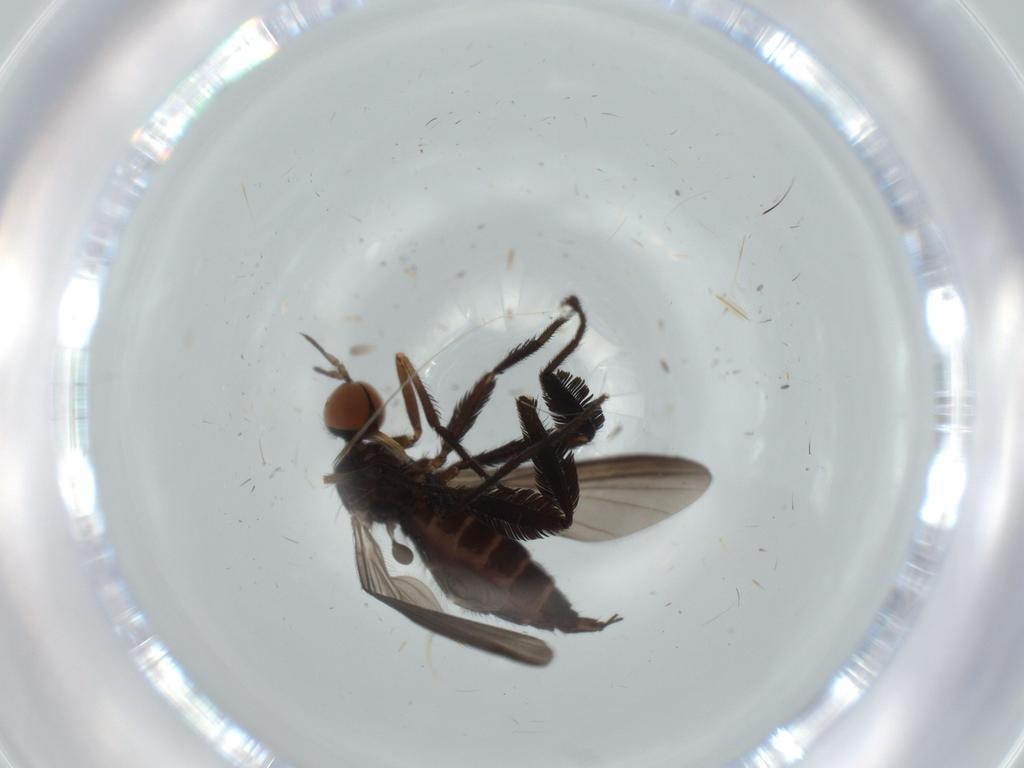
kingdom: Animalia
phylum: Arthropoda
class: Insecta
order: Diptera
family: Empididae
